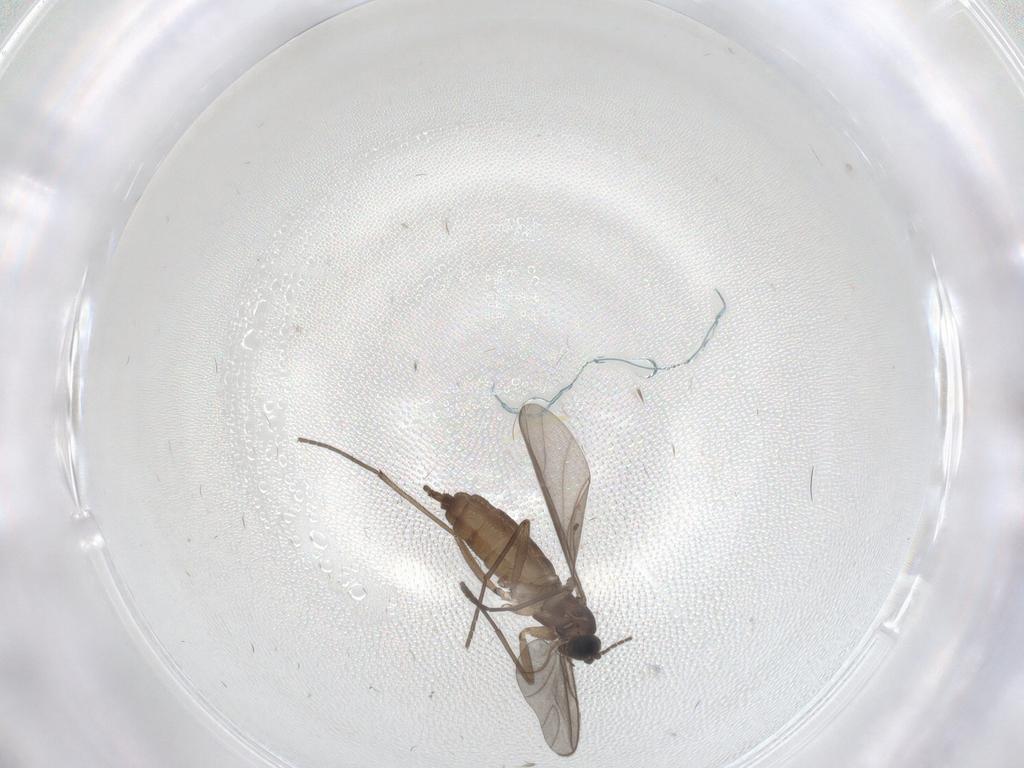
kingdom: Animalia
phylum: Arthropoda
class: Insecta
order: Diptera
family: Sciaridae
